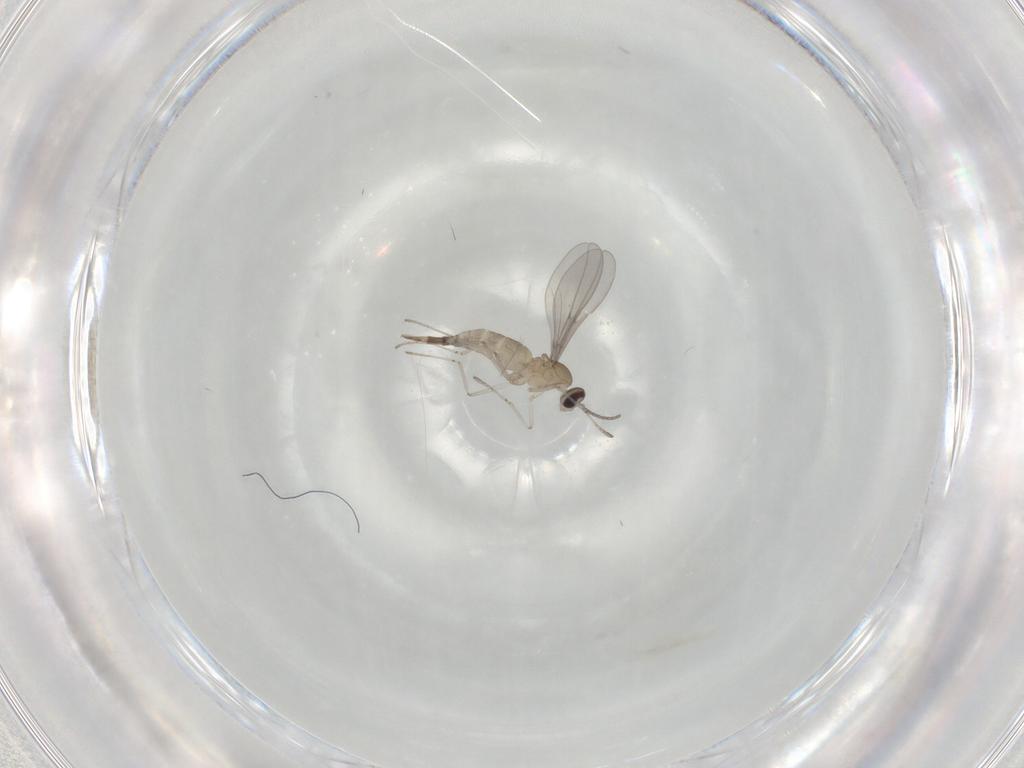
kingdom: Animalia
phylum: Arthropoda
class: Insecta
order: Diptera
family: Cecidomyiidae
